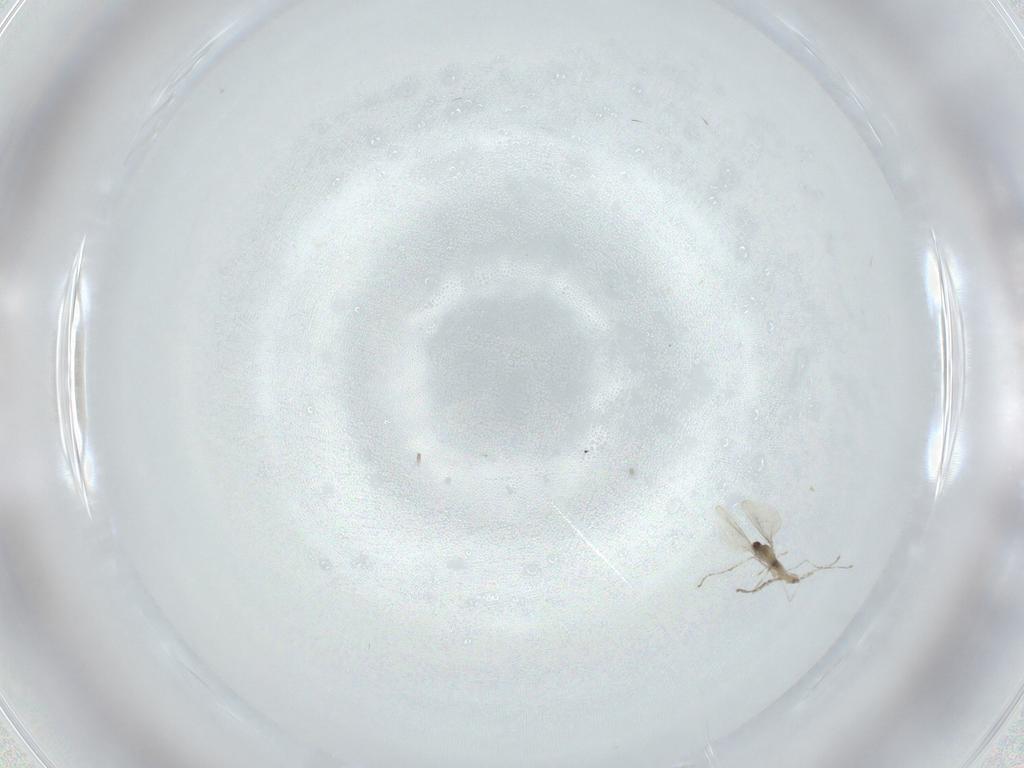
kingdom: Animalia
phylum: Arthropoda
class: Insecta
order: Diptera
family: Cecidomyiidae
